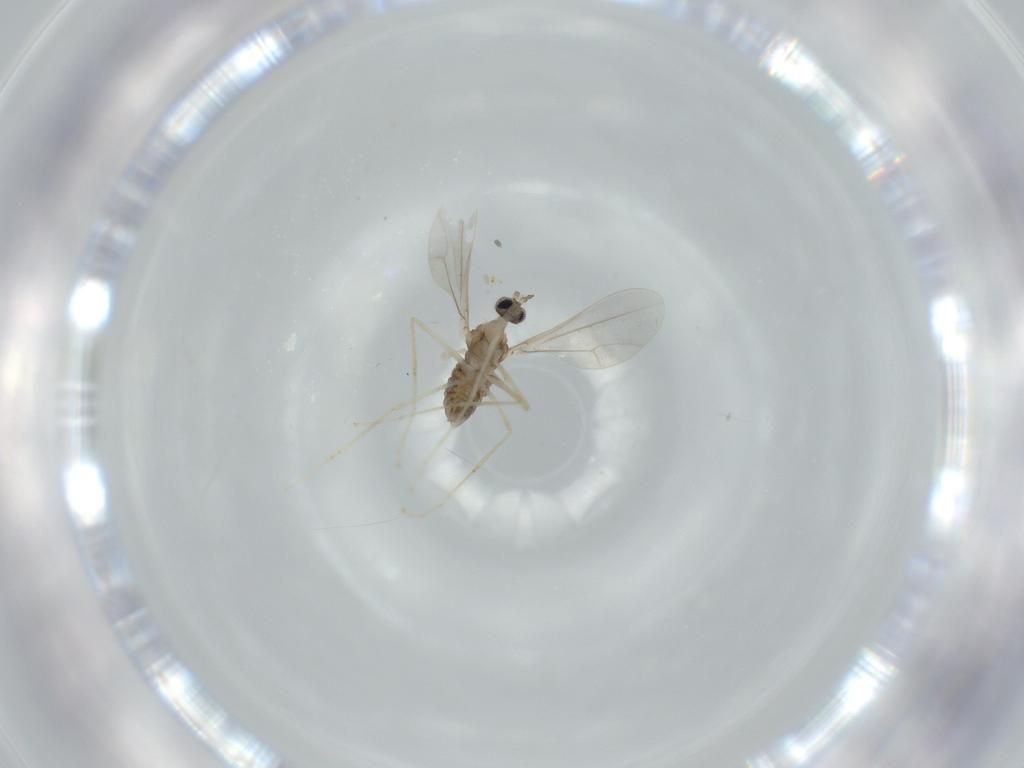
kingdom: Animalia
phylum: Arthropoda
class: Insecta
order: Diptera
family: Cecidomyiidae
